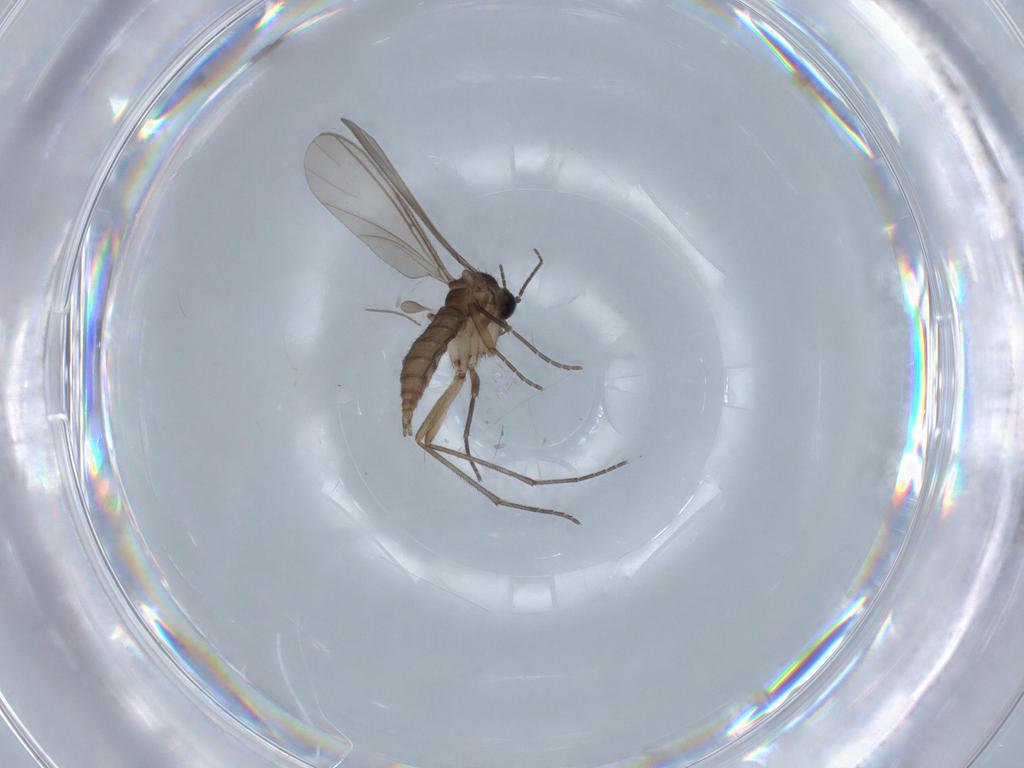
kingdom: Animalia
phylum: Arthropoda
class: Insecta
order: Diptera
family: Sciaridae
